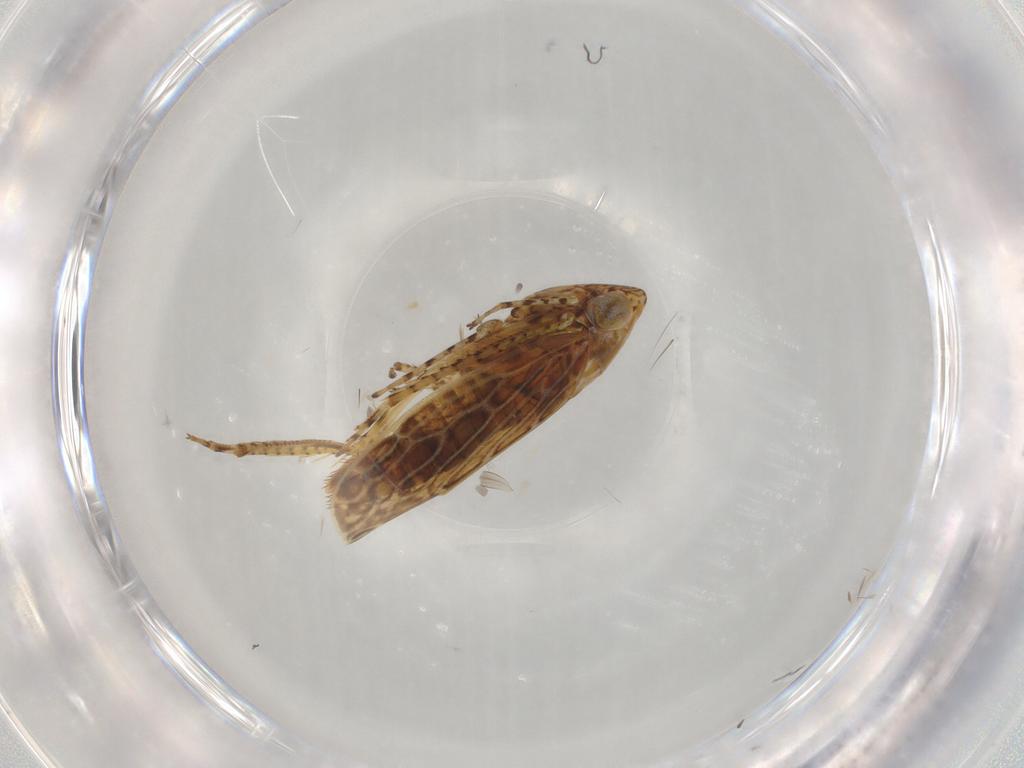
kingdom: Animalia
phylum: Arthropoda
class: Insecta
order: Hemiptera
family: Cicadellidae
